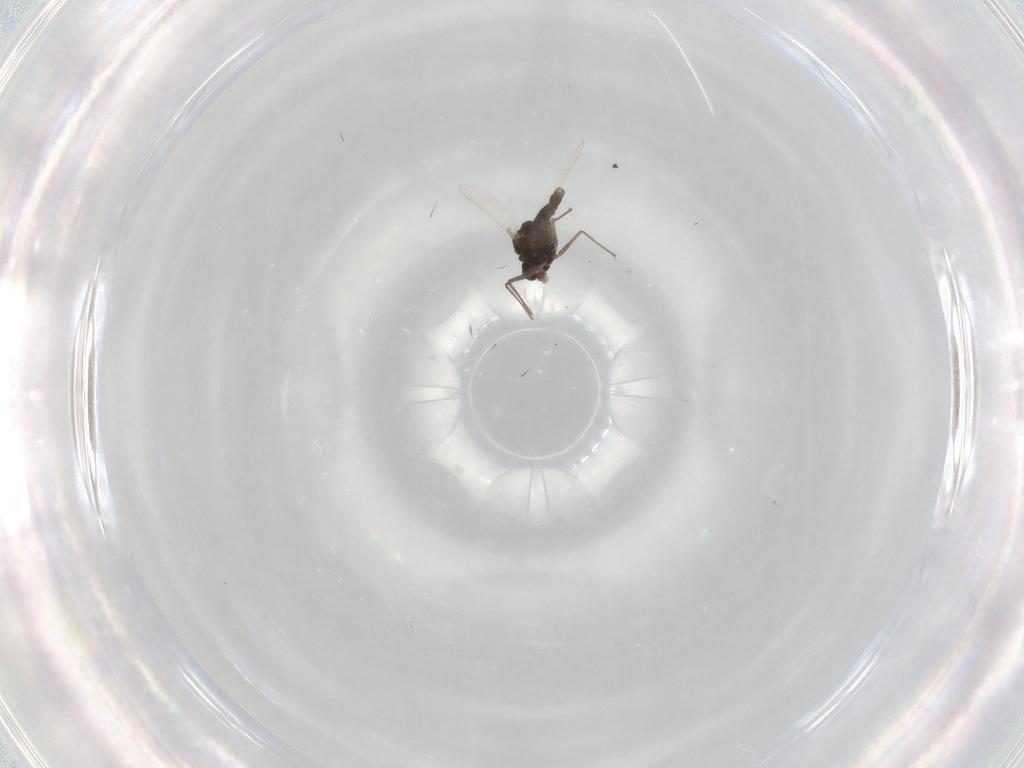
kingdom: Animalia
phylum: Arthropoda
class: Insecta
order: Diptera
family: Chironomidae
